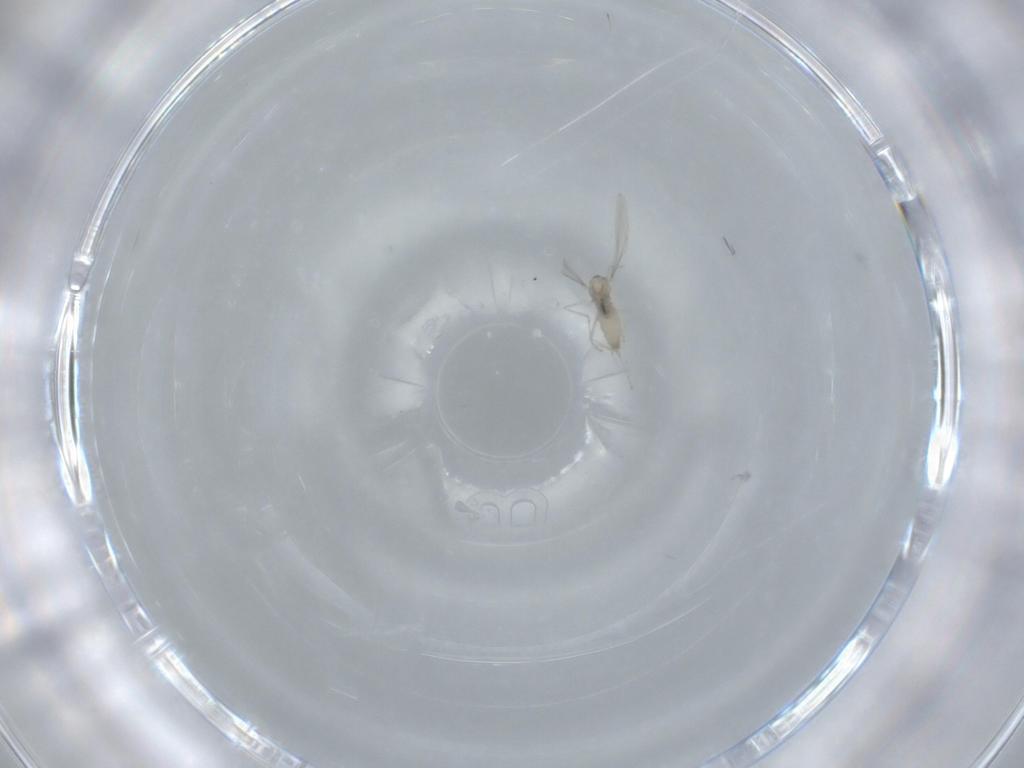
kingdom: Animalia
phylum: Arthropoda
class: Insecta
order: Diptera
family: Cecidomyiidae
